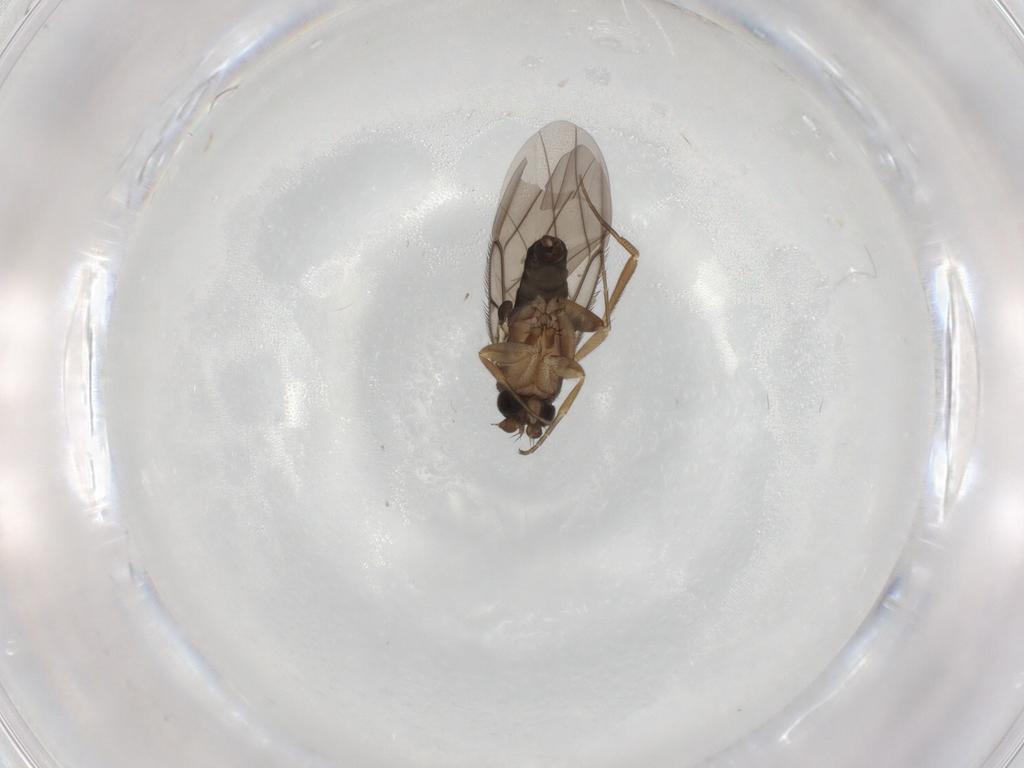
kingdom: Animalia
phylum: Arthropoda
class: Insecta
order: Diptera
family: Phoridae
